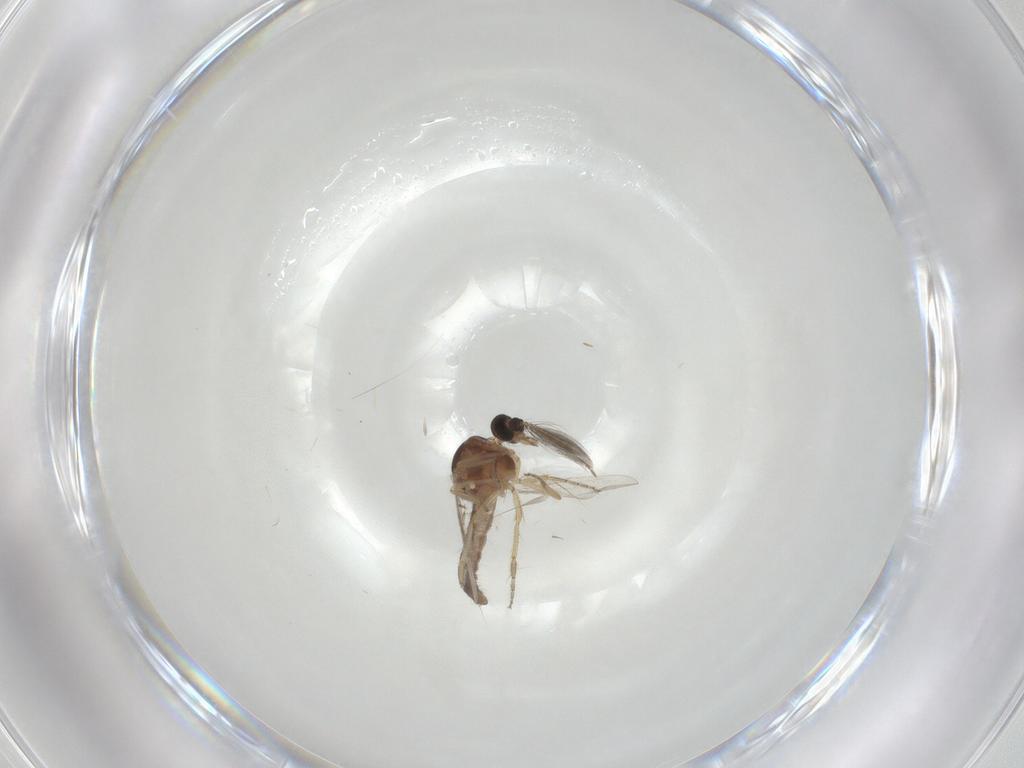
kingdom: Animalia
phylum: Arthropoda
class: Insecta
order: Diptera
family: Ceratopogonidae
